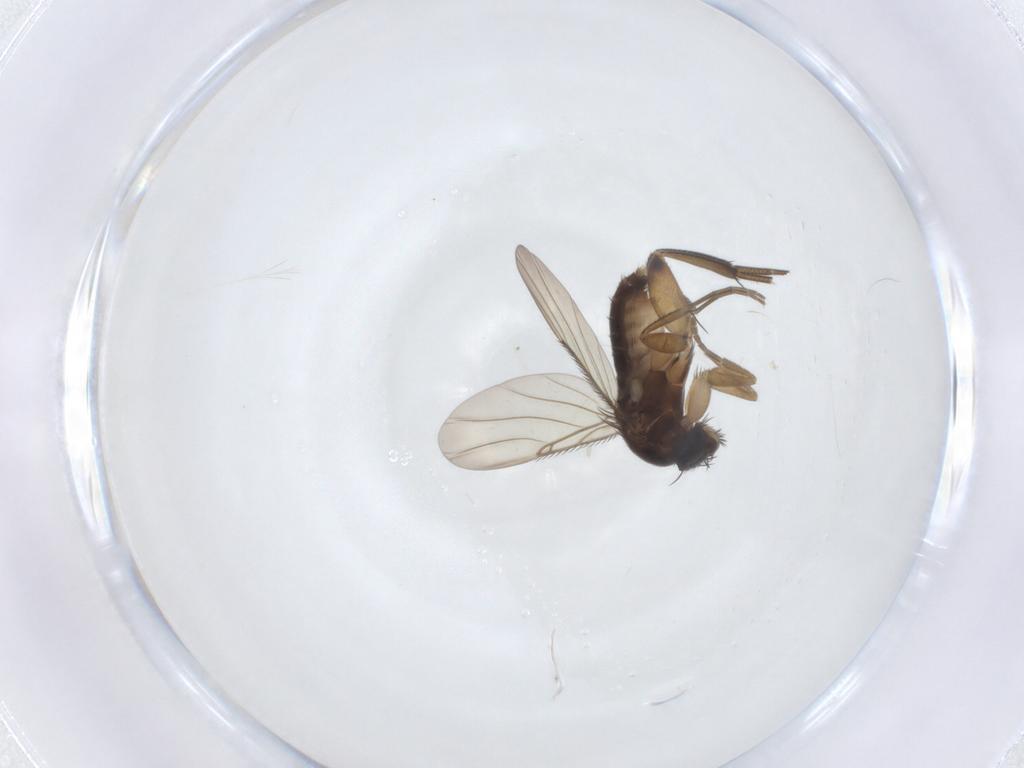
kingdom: Animalia
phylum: Arthropoda
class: Insecta
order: Diptera
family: Phoridae
